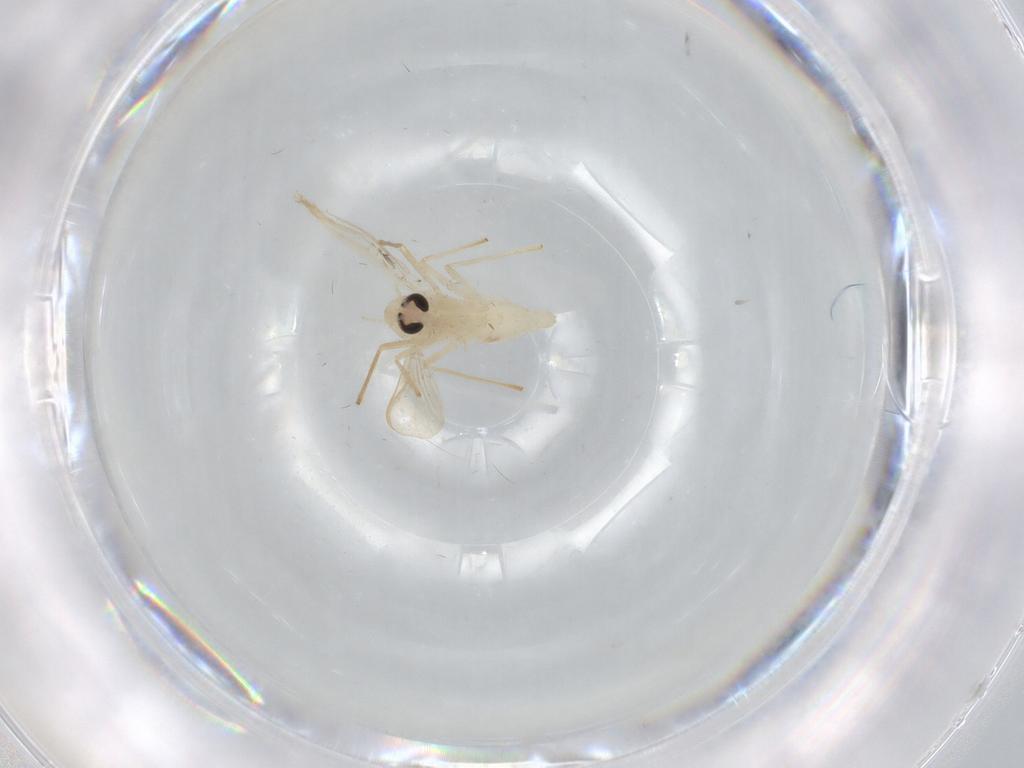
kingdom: Animalia
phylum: Arthropoda
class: Insecta
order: Diptera
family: Chironomidae
